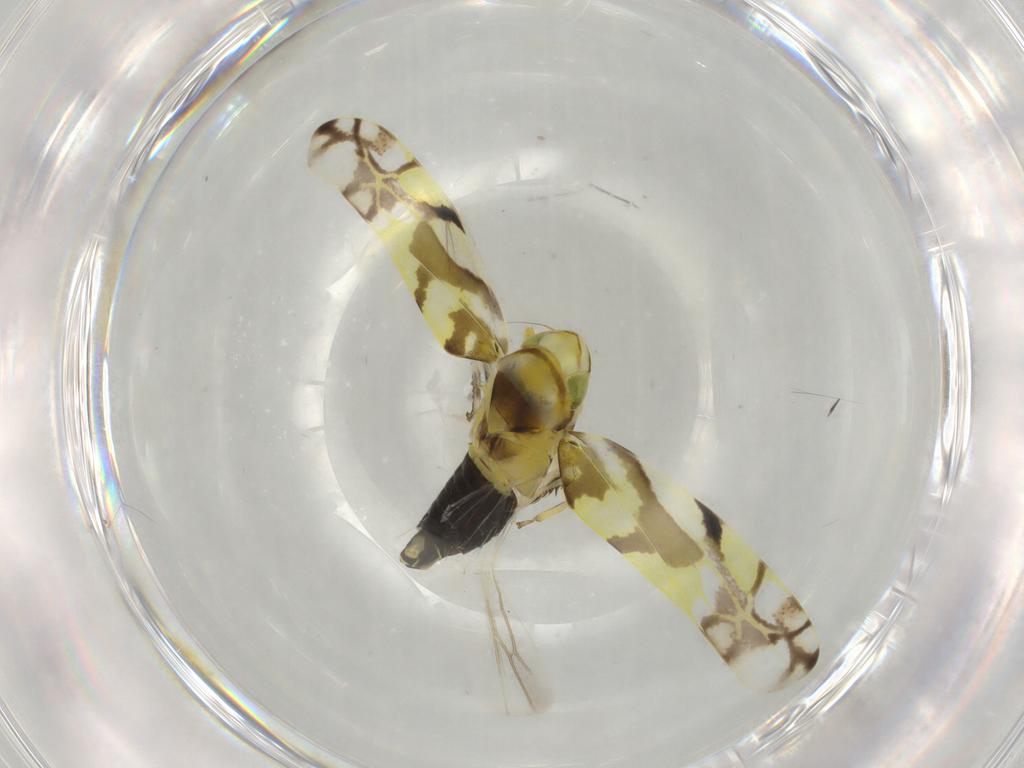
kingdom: Animalia
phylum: Arthropoda
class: Insecta
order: Hemiptera
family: Cicadellidae
